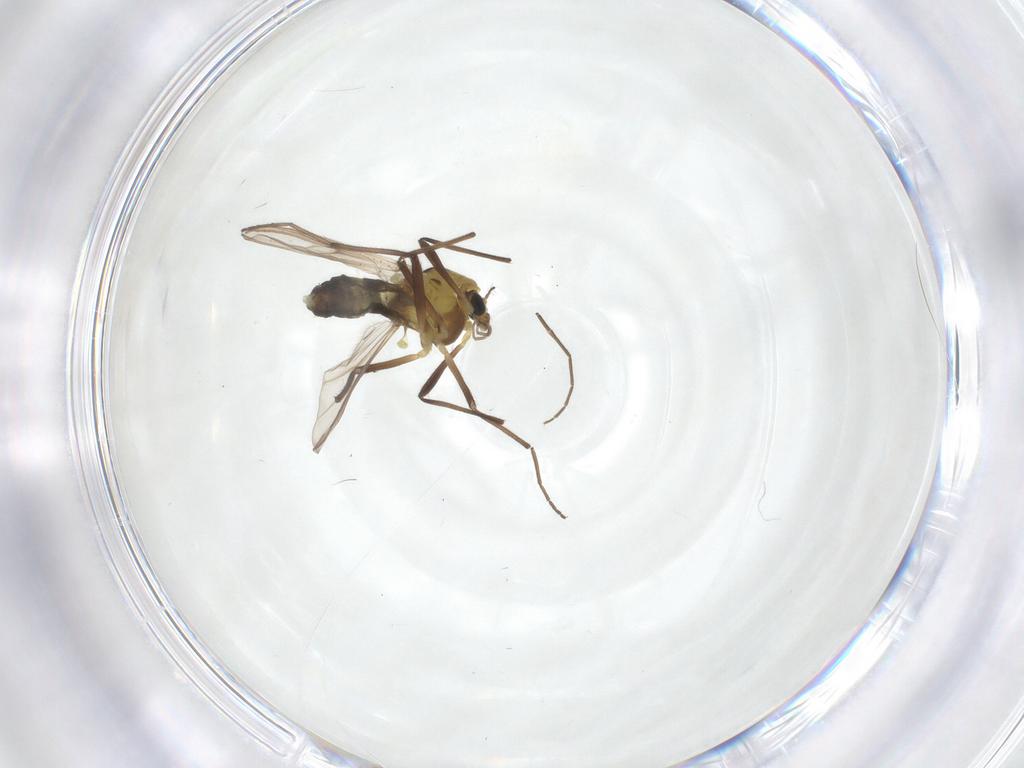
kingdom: Animalia
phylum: Arthropoda
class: Insecta
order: Diptera
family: Chironomidae
